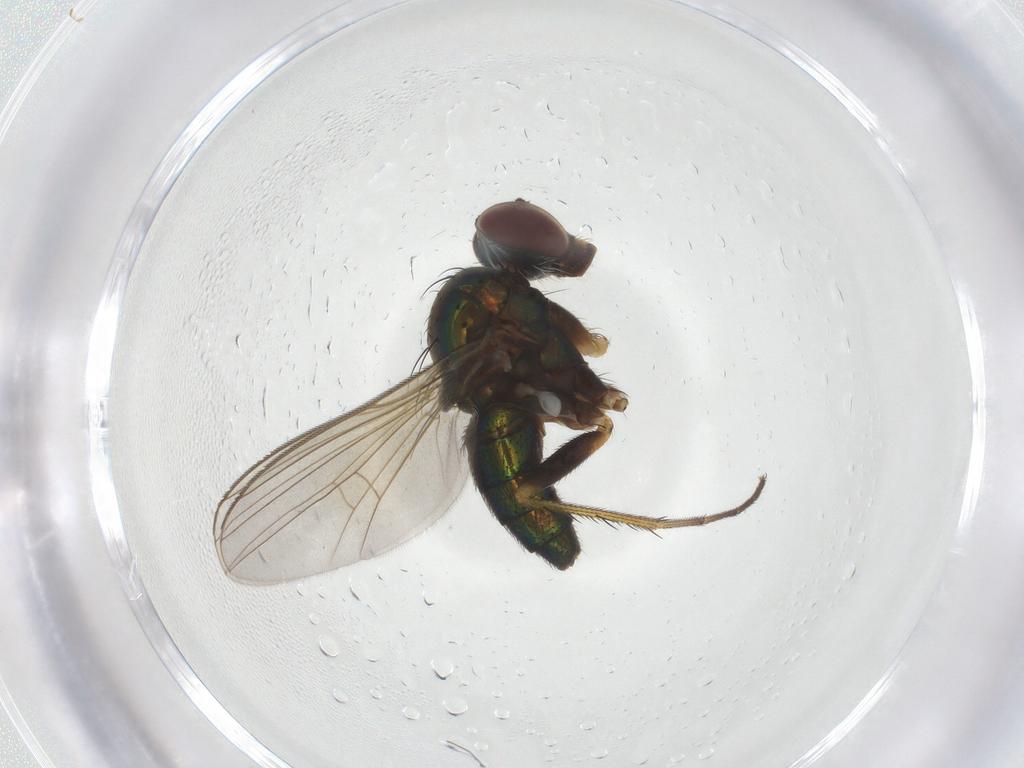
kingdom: Animalia
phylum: Arthropoda
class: Insecta
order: Diptera
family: Dolichopodidae
